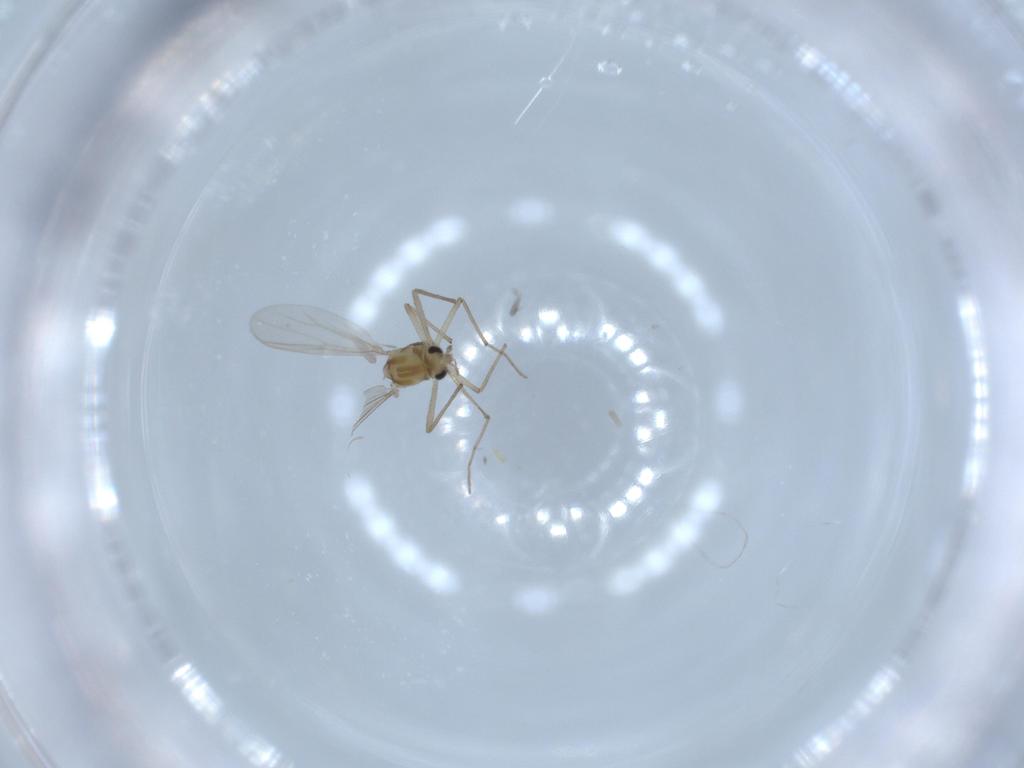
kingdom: Animalia
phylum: Arthropoda
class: Insecta
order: Diptera
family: Chironomidae
